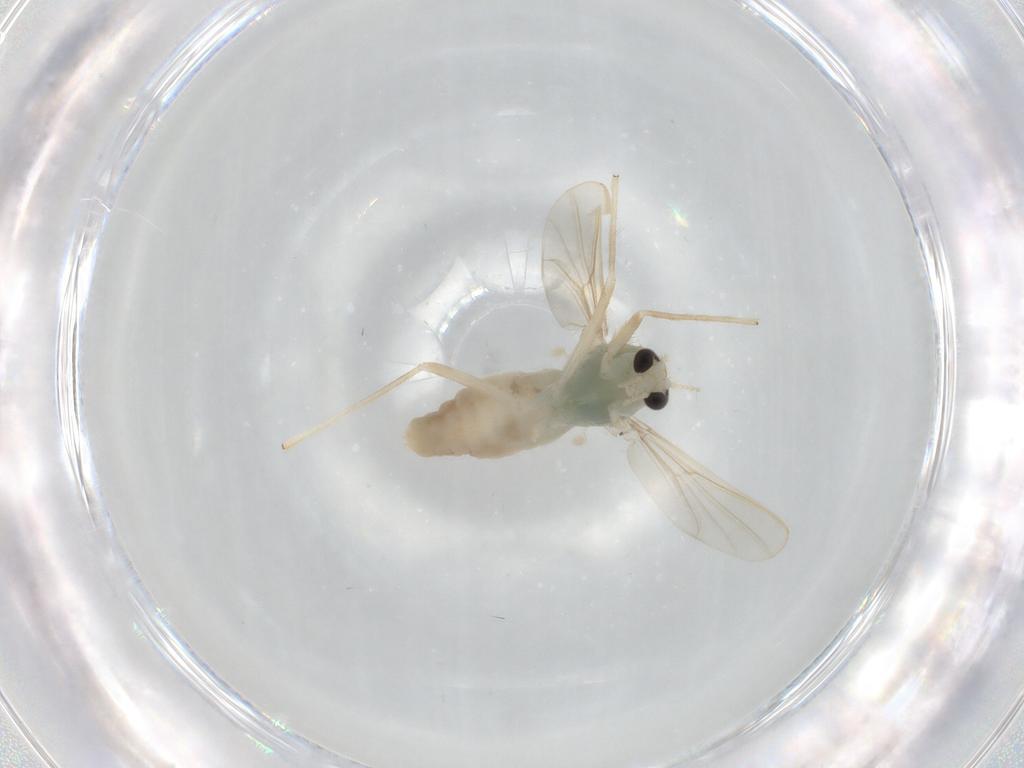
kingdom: Animalia
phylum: Arthropoda
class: Insecta
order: Diptera
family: Chironomidae
